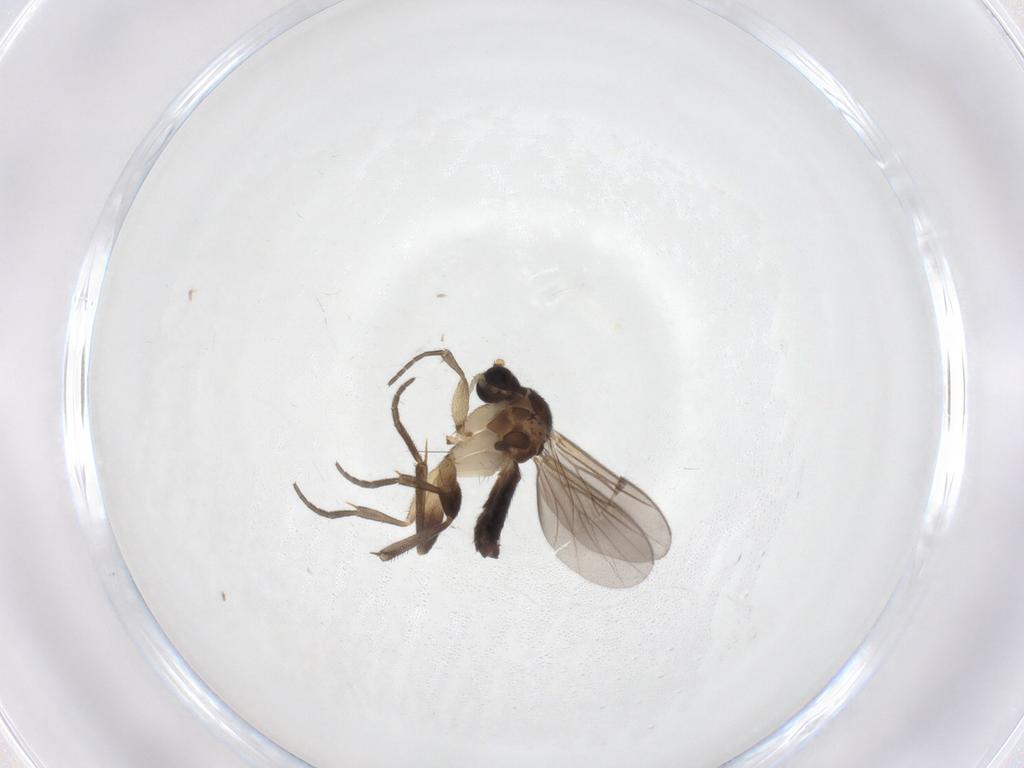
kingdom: Animalia
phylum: Arthropoda
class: Insecta
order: Diptera
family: Mycetophilidae
